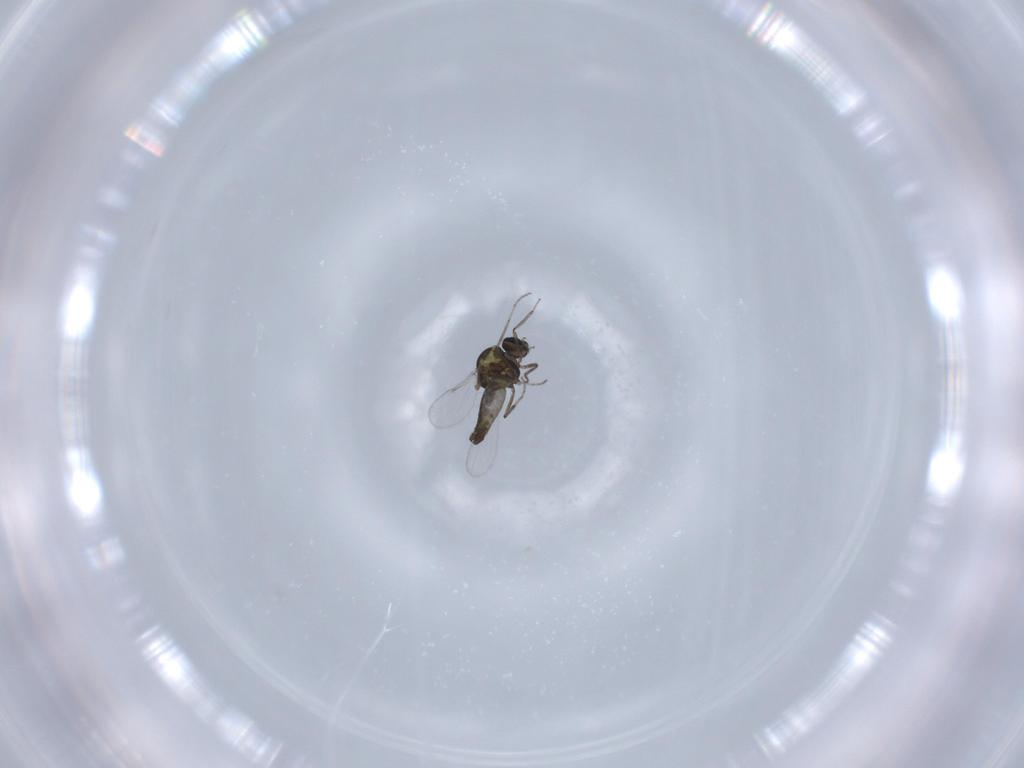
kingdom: Animalia
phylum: Arthropoda
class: Insecta
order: Diptera
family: Ceratopogonidae
